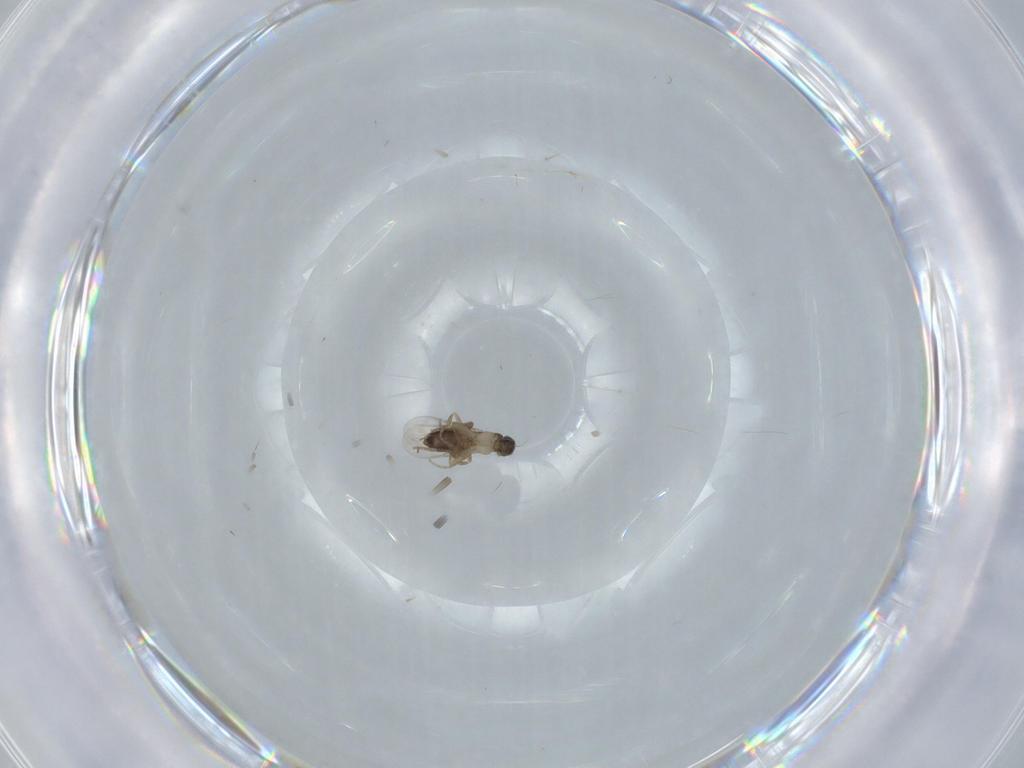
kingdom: Animalia
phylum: Arthropoda
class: Insecta
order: Diptera
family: Phoridae
